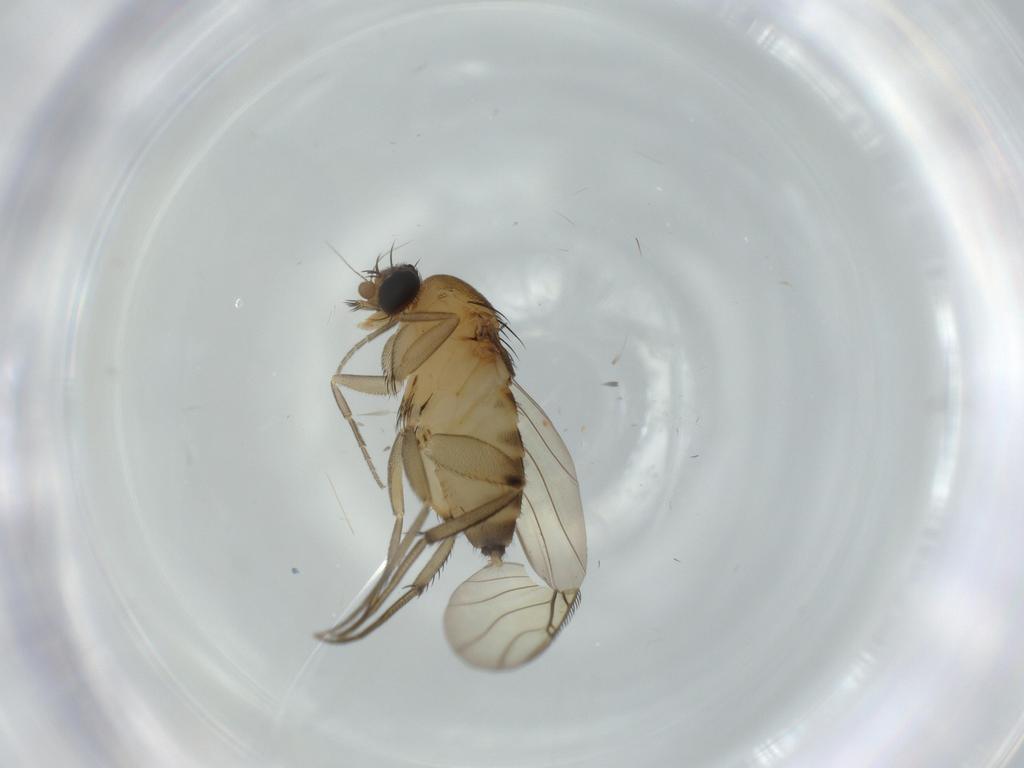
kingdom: Animalia
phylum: Arthropoda
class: Insecta
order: Diptera
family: Phoridae
